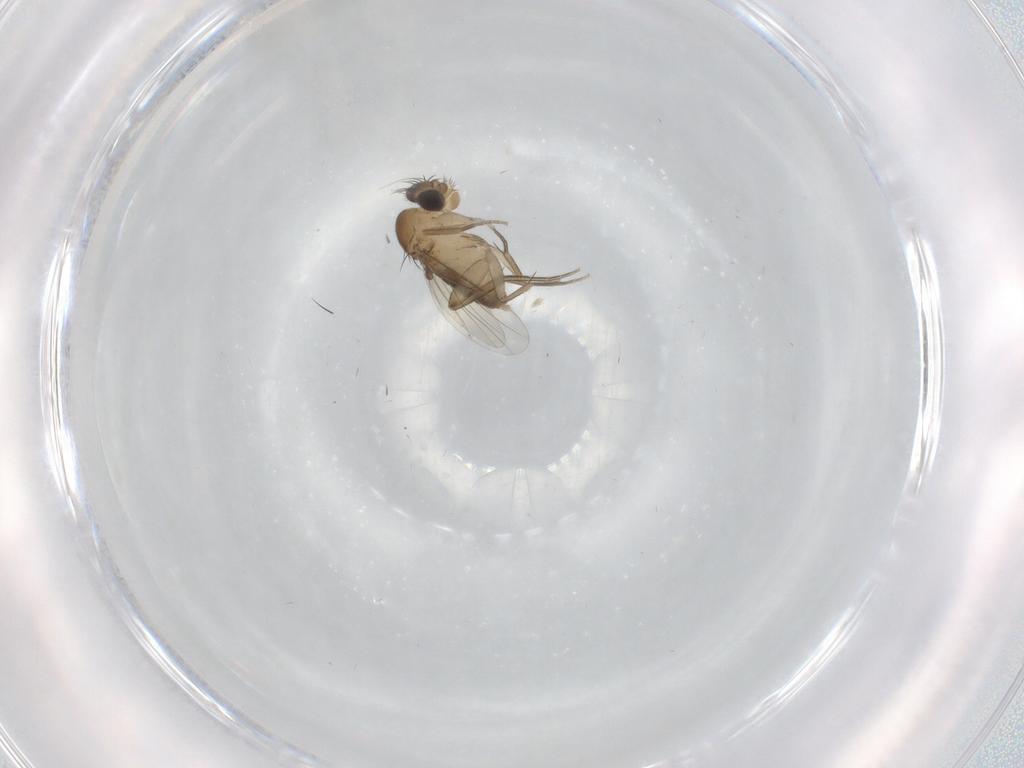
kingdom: Animalia
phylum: Arthropoda
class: Insecta
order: Diptera
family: Phoridae
